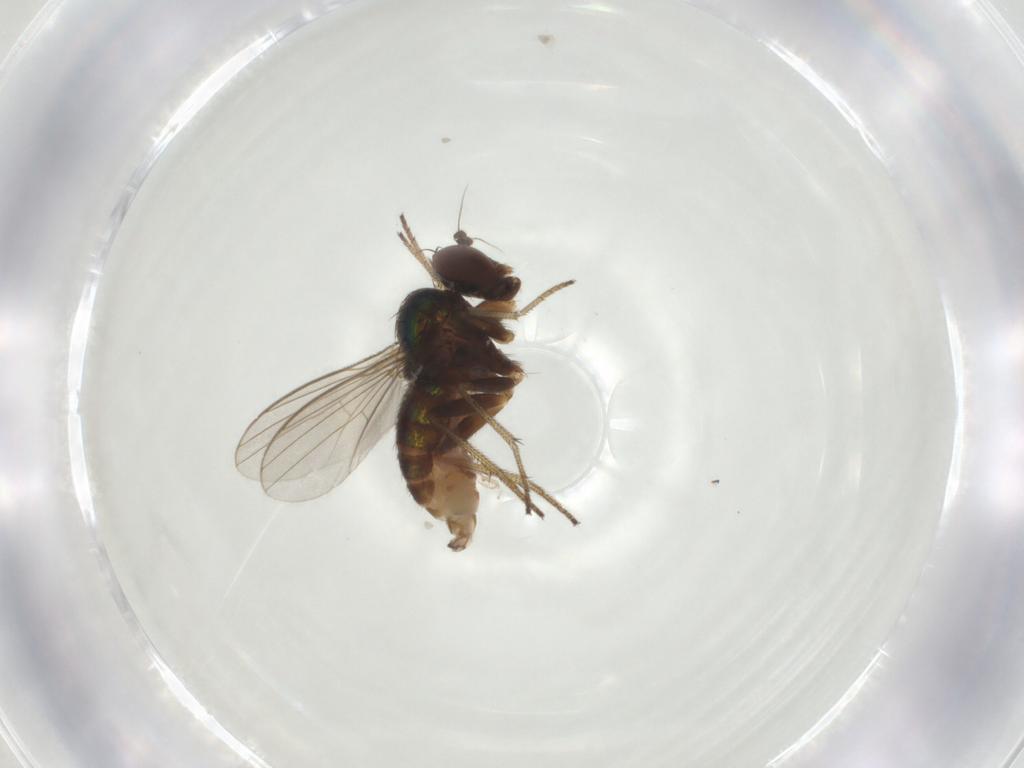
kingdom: Animalia
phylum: Arthropoda
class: Insecta
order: Diptera
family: Dolichopodidae
